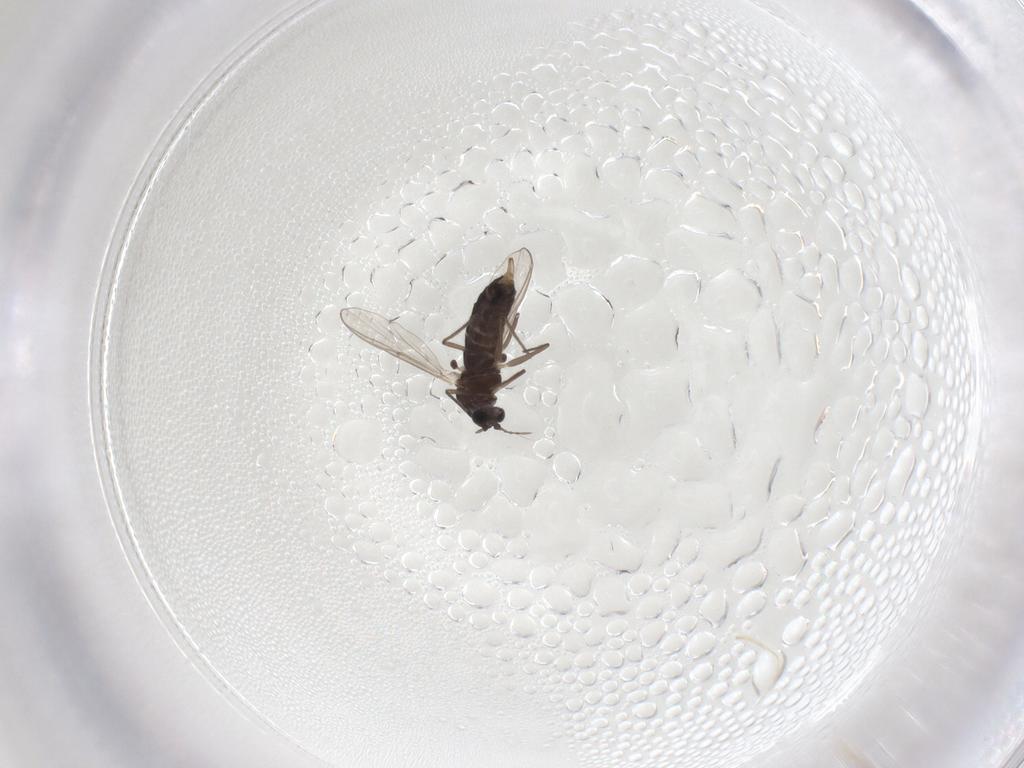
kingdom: Animalia
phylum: Arthropoda
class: Insecta
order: Diptera
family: Chironomidae
